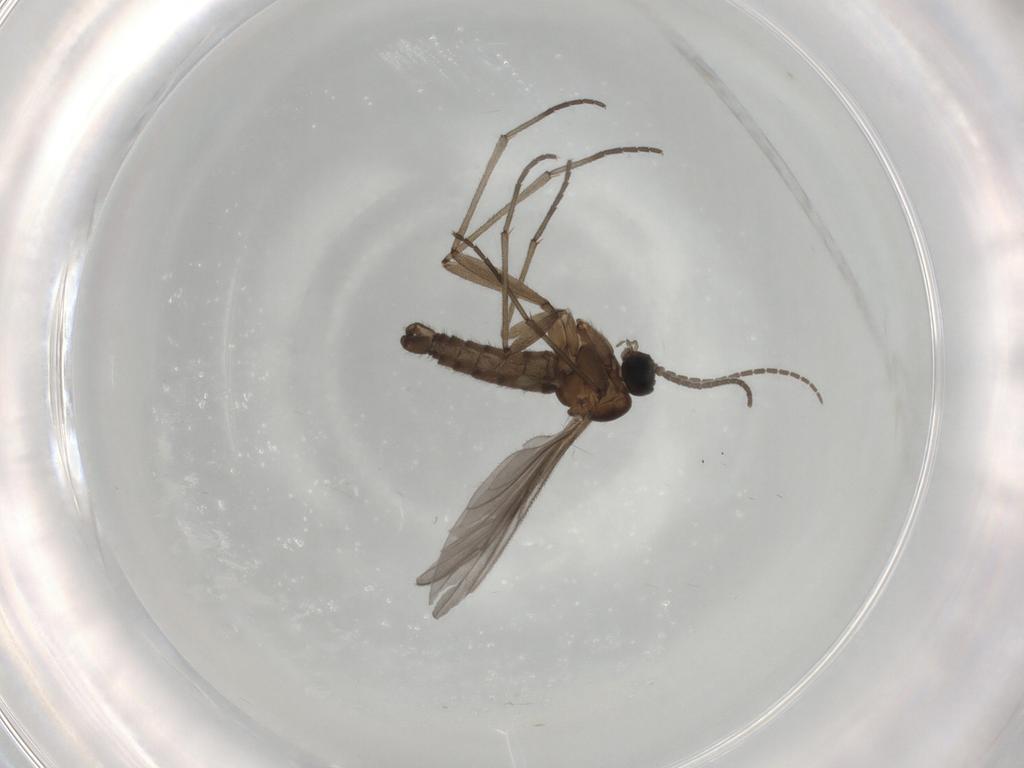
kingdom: Animalia
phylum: Arthropoda
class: Insecta
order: Diptera
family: Sciaridae
